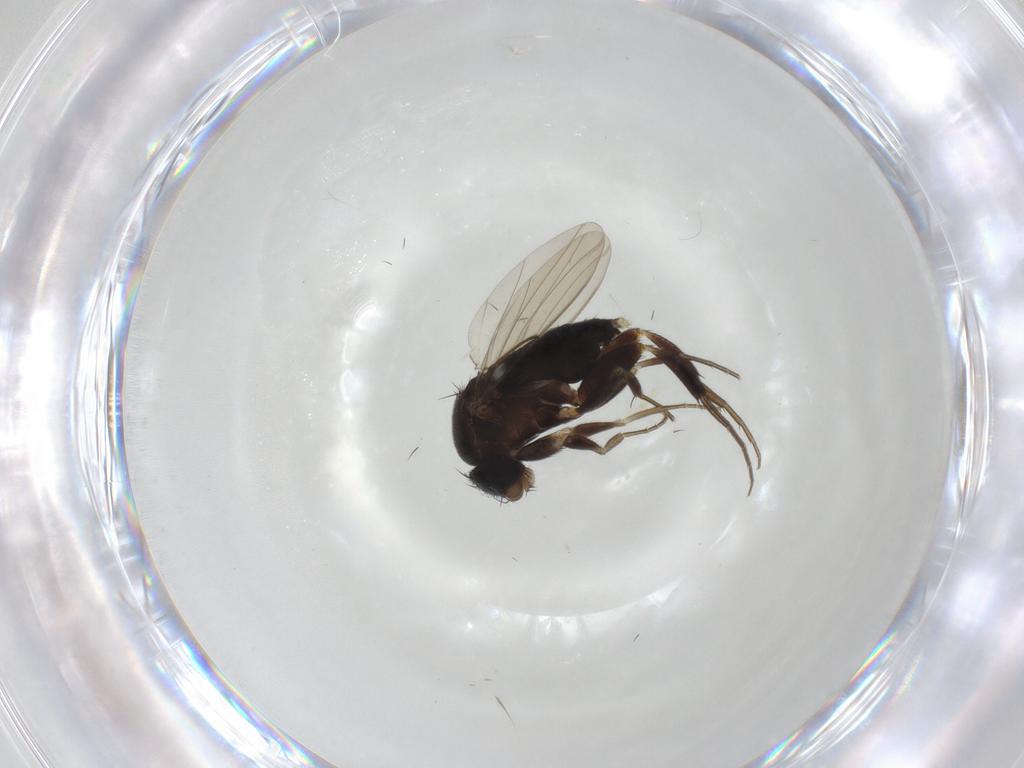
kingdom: Animalia
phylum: Arthropoda
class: Insecta
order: Diptera
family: Phoridae
